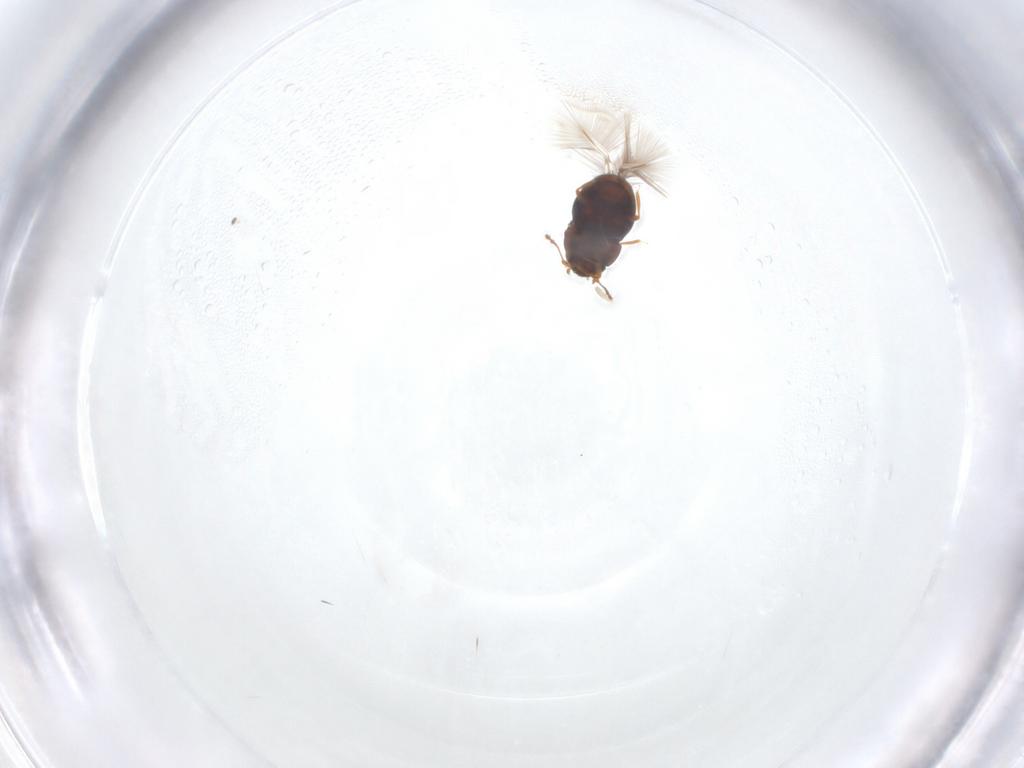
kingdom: Animalia
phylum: Arthropoda
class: Insecta
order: Coleoptera
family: Ptiliidae
